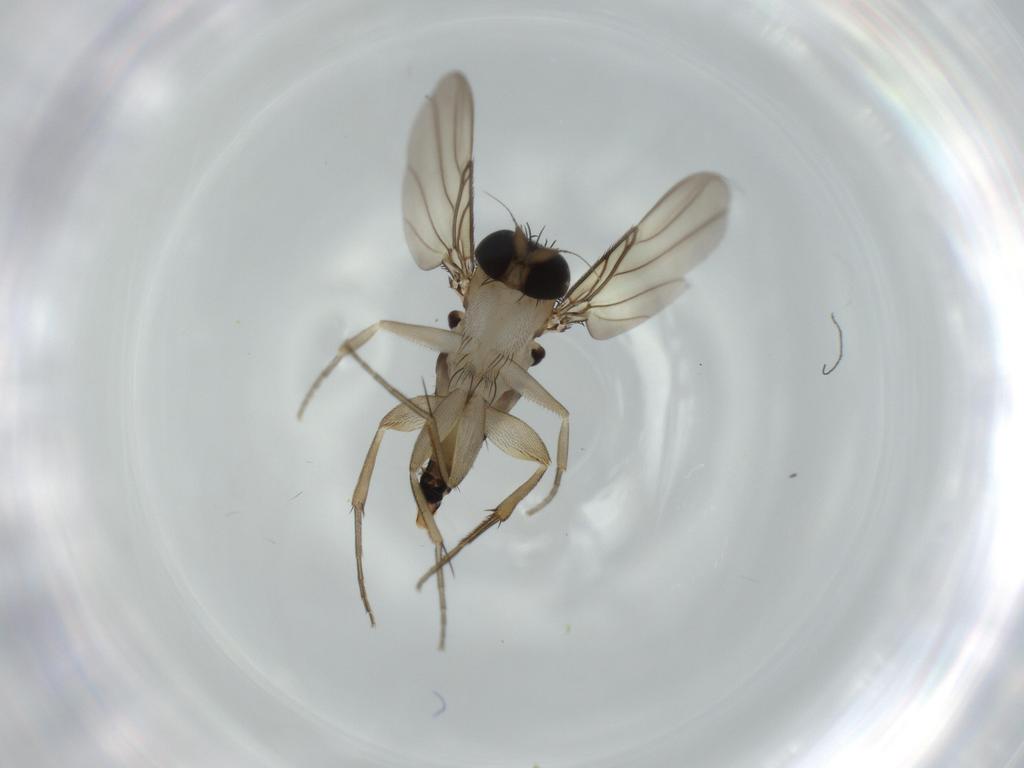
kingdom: Animalia
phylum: Arthropoda
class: Insecta
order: Diptera
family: Phoridae
